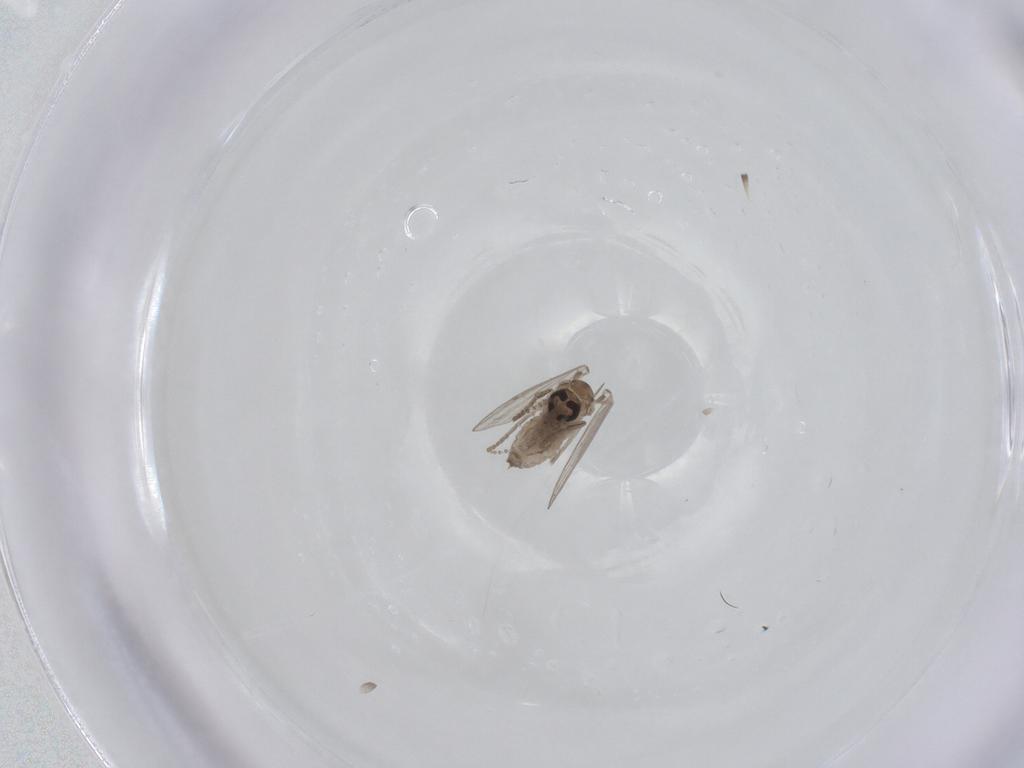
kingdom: Animalia
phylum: Arthropoda
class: Insecta
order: Diptera
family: Psychodidae
